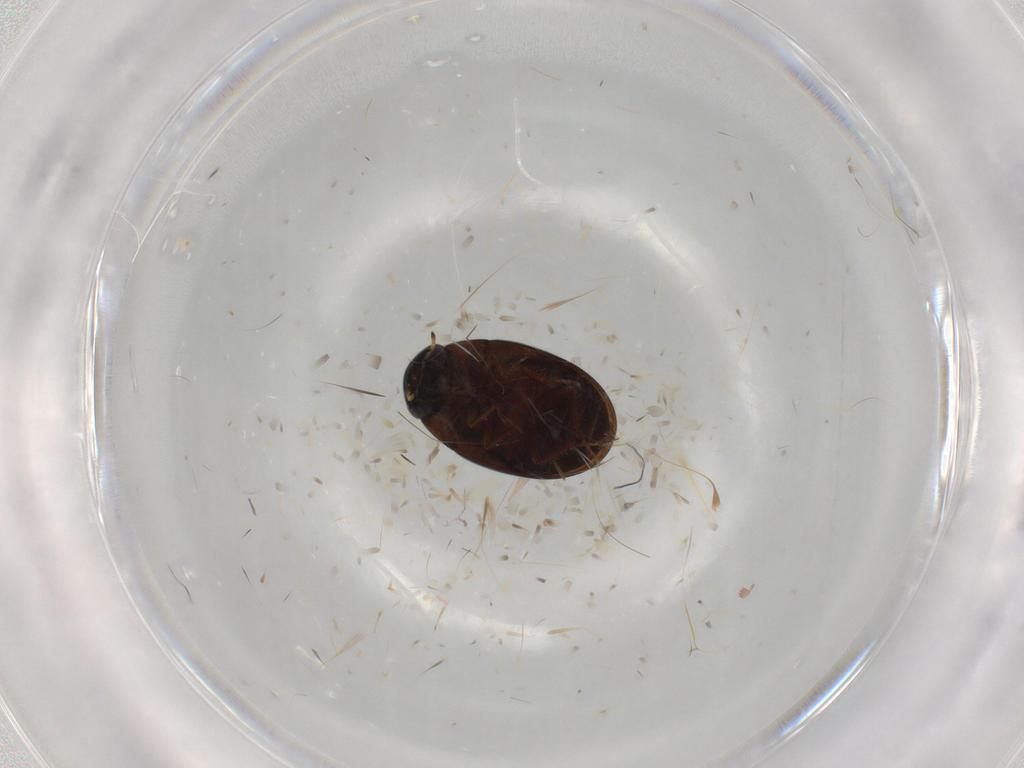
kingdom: Animalia
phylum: Arthropoda
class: Insecta
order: Coleoptera
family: Hydrophilidae
